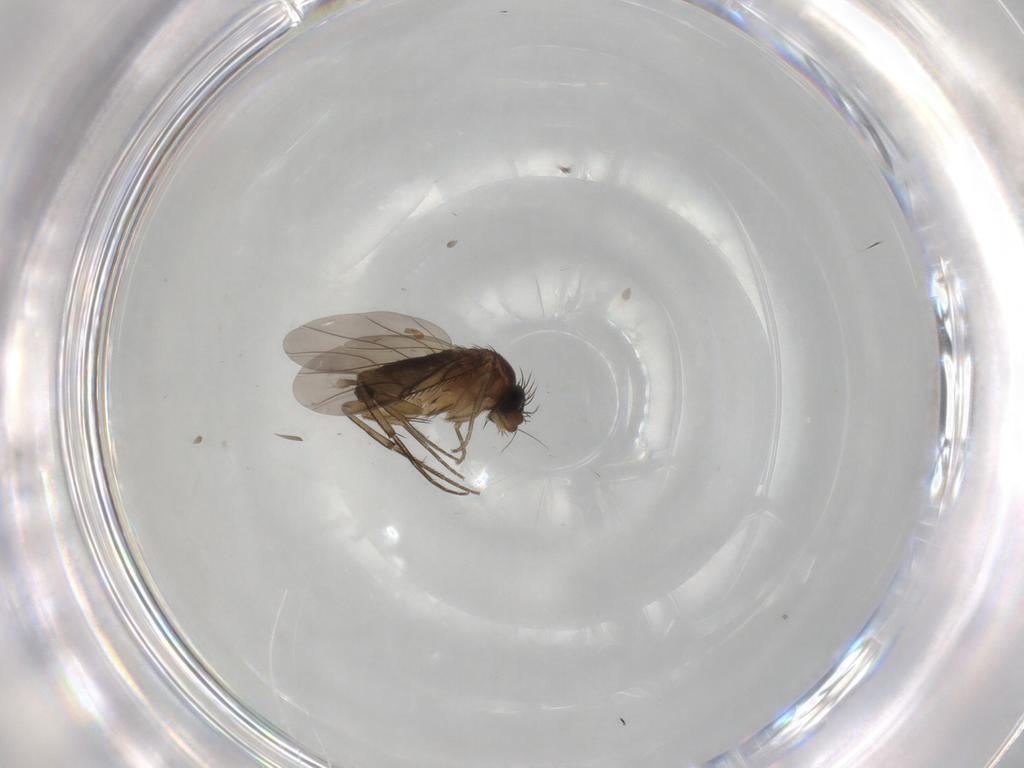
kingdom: Animalia
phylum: Arthropoda
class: Insecta
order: Diptera
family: Phoridae
